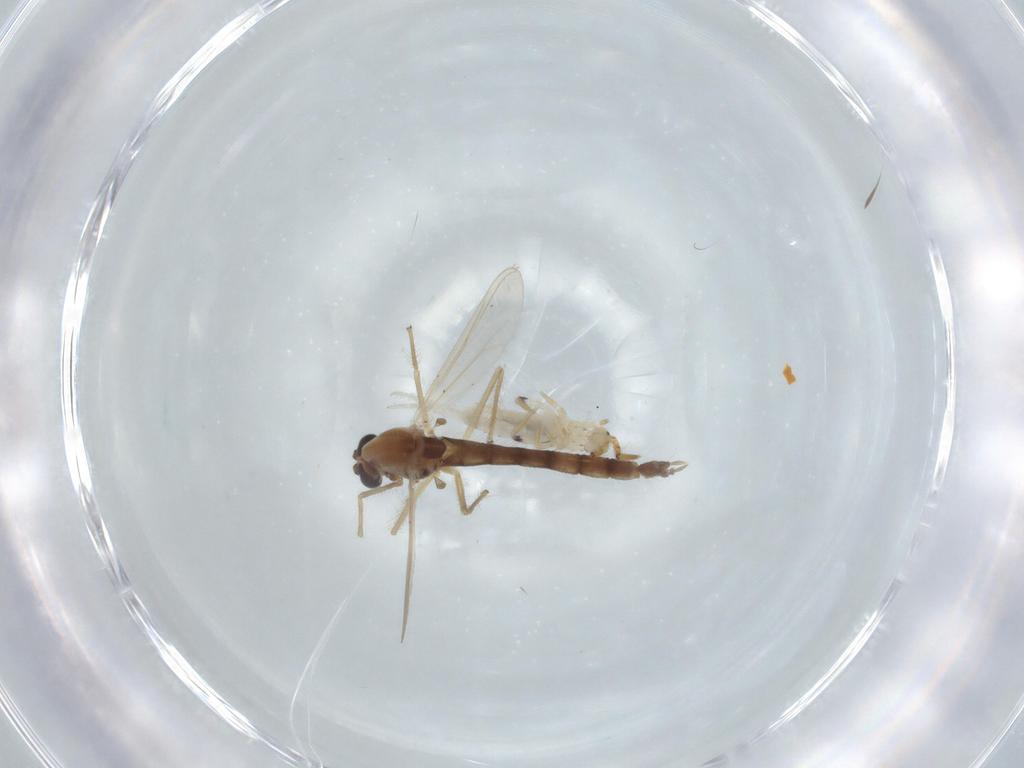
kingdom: Animalia
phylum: Arthropoda
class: Insecta
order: Diptera
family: Chironomidae
